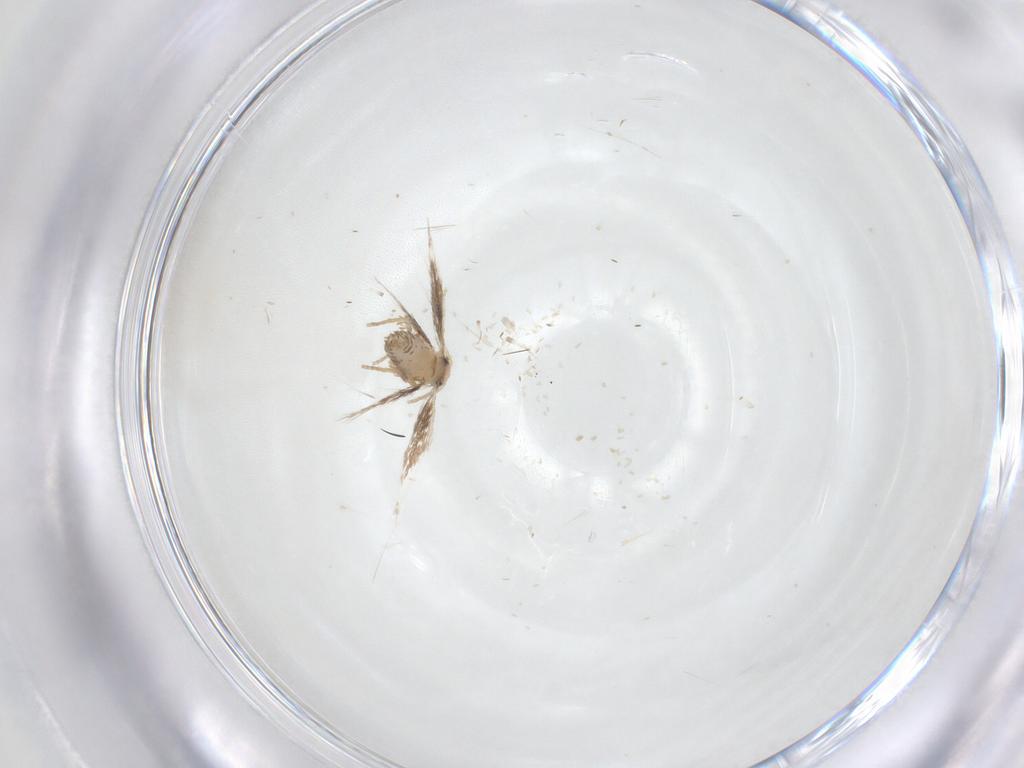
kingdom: Animalia
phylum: Arthropoda
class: Insecta
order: Lepidoptera
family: Nepticulidae
